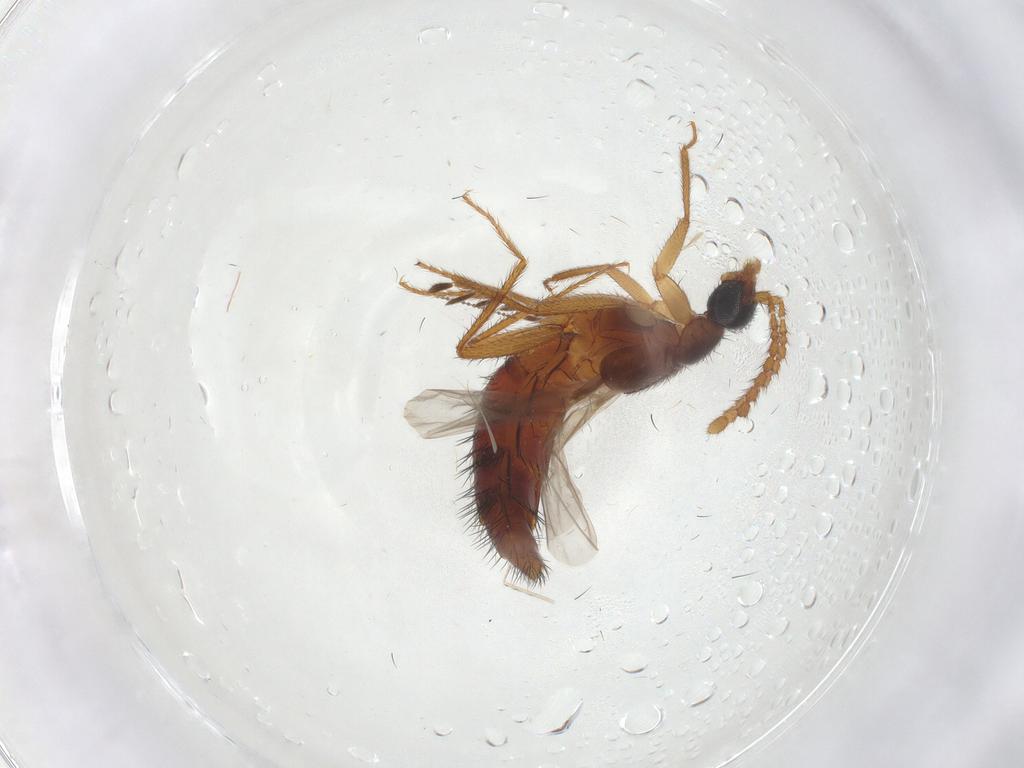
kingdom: Animalia
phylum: Arthropoda
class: Insecta
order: Coleoptera
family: Staphylinidae
